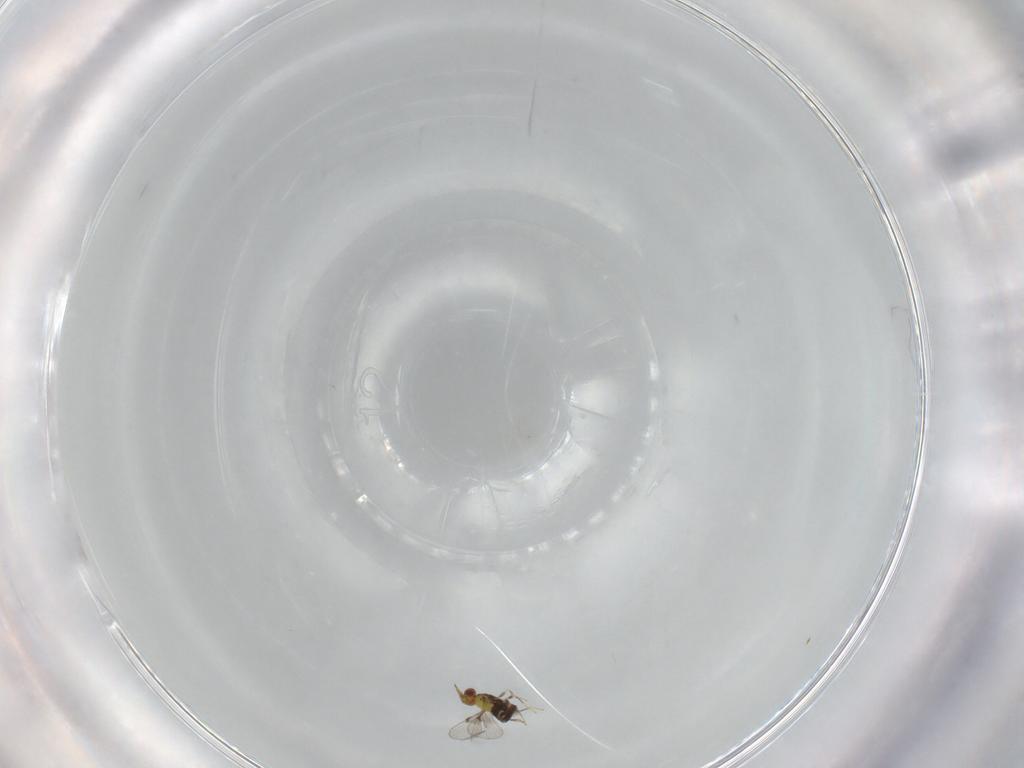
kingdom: Animalia
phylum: Arthropoda
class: Insecta
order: Hymenoptera
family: Trichogrammatidae
